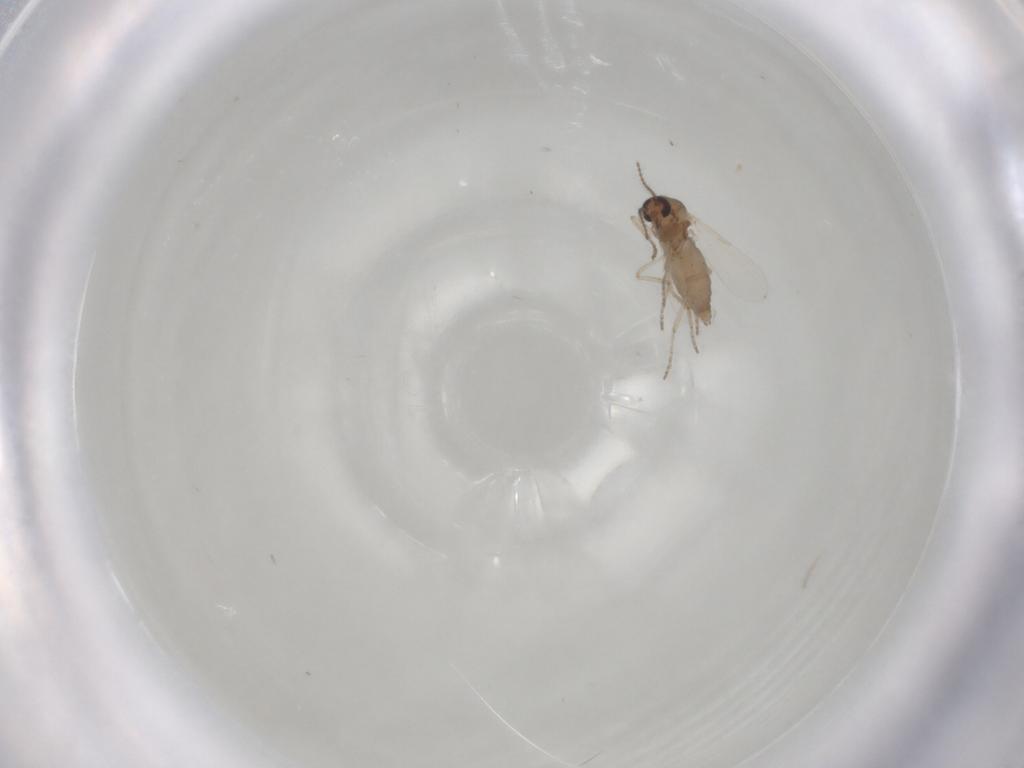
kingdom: Animalia
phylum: Arthropoda
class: Insecta
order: Diptera
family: Ceratopogonidae
